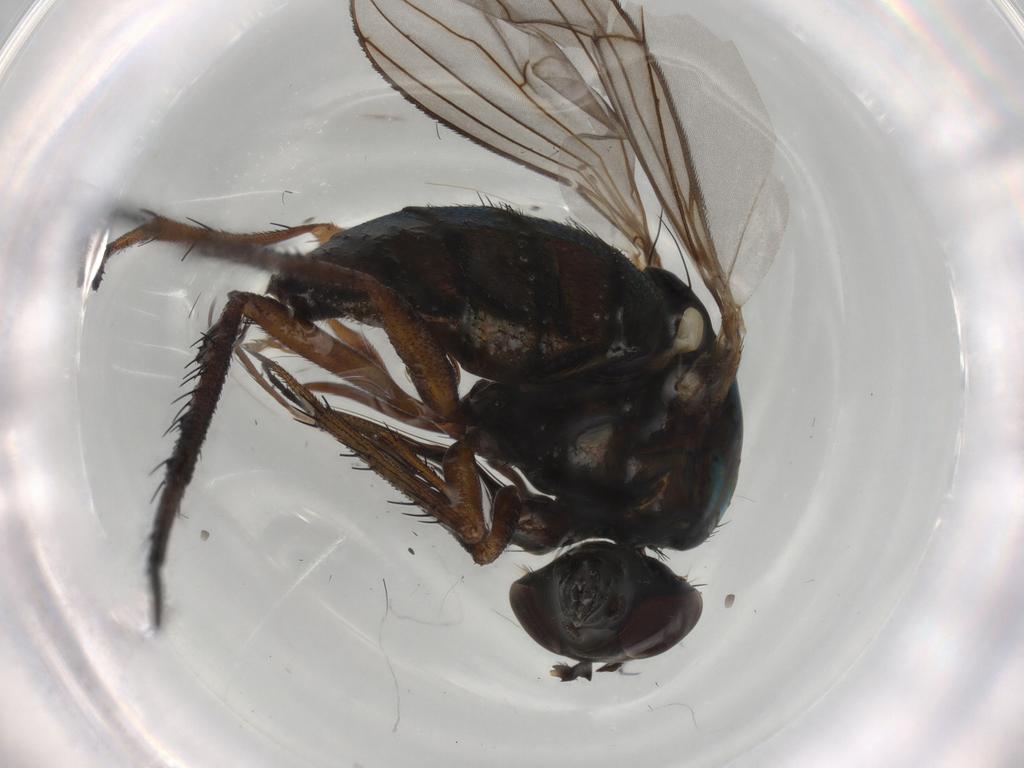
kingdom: Animalia
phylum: Arthropoda
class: Insecta
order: Diptera
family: Dolichopodidae
